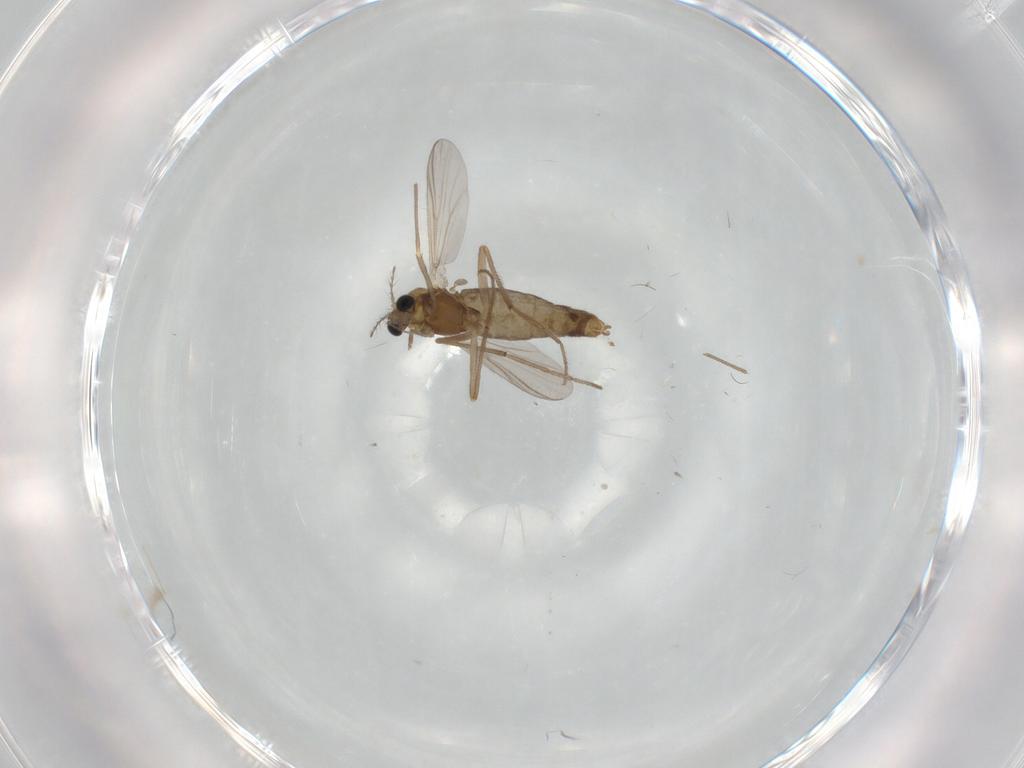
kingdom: Animalia
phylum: Arthropoda
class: Insecta
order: Diptera
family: Chironomidae
